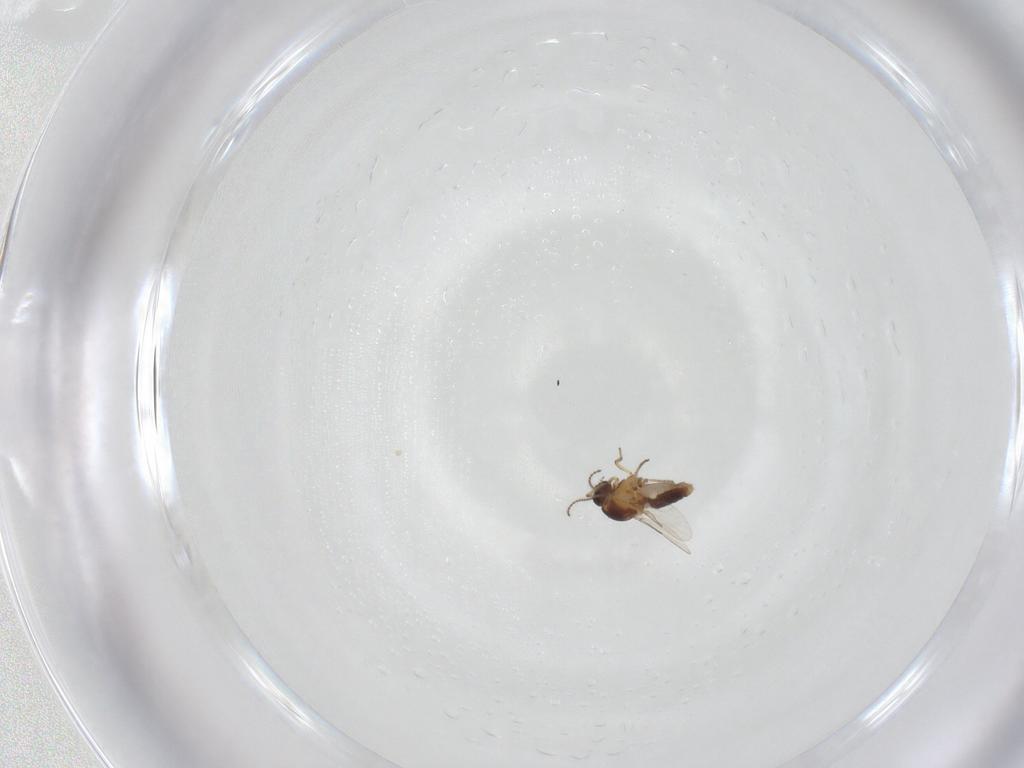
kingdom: Animalia
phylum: Arthropoda
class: Insecta
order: Diptera
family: Ceratopogonidae
